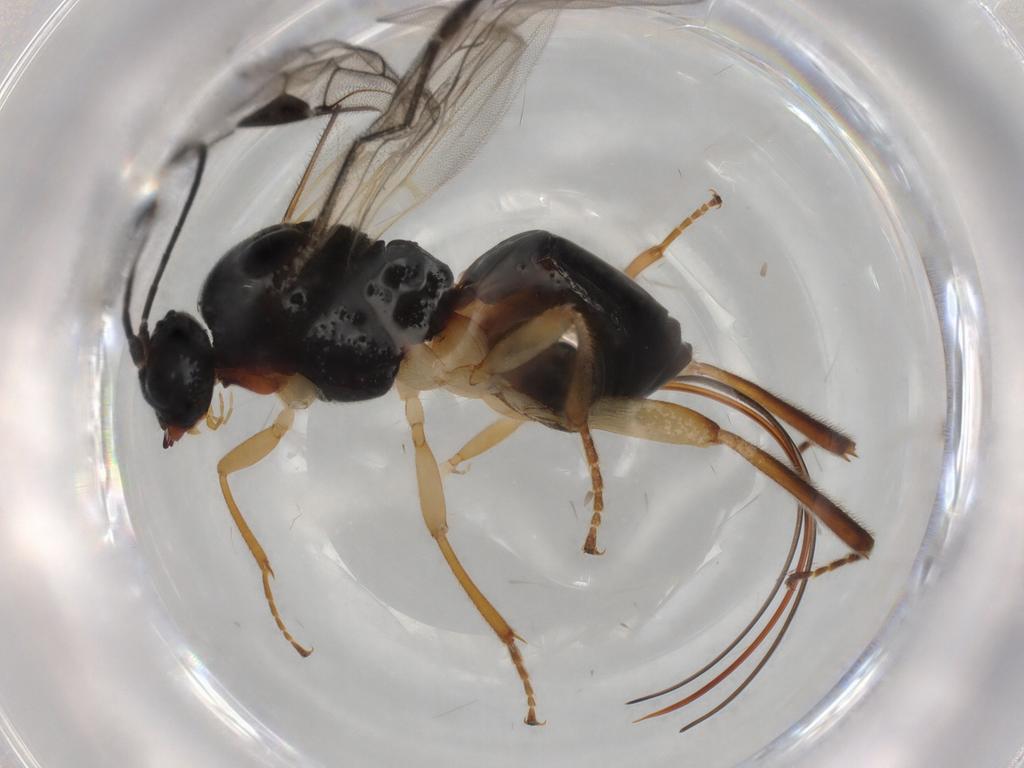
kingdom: Animalia
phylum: Arthropoda
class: Insecta
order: Hymenoptera
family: Braconidae
